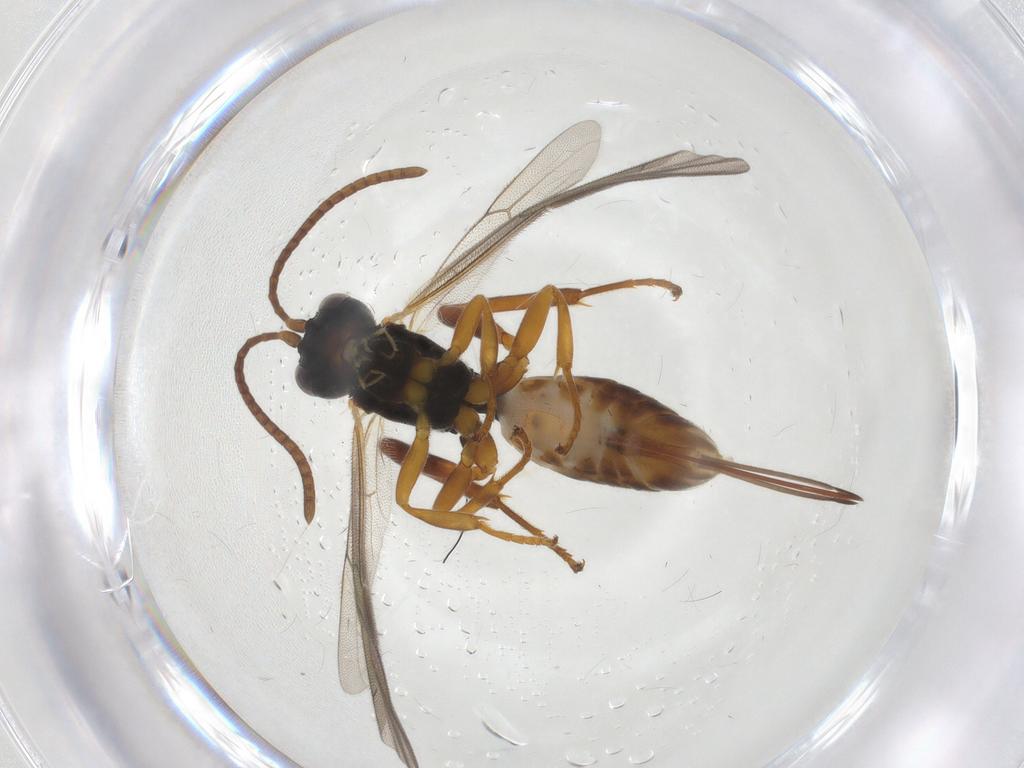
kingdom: Animalia
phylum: Arthropoda
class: Insecta
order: Hymenoptera
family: Ichneumonidae
